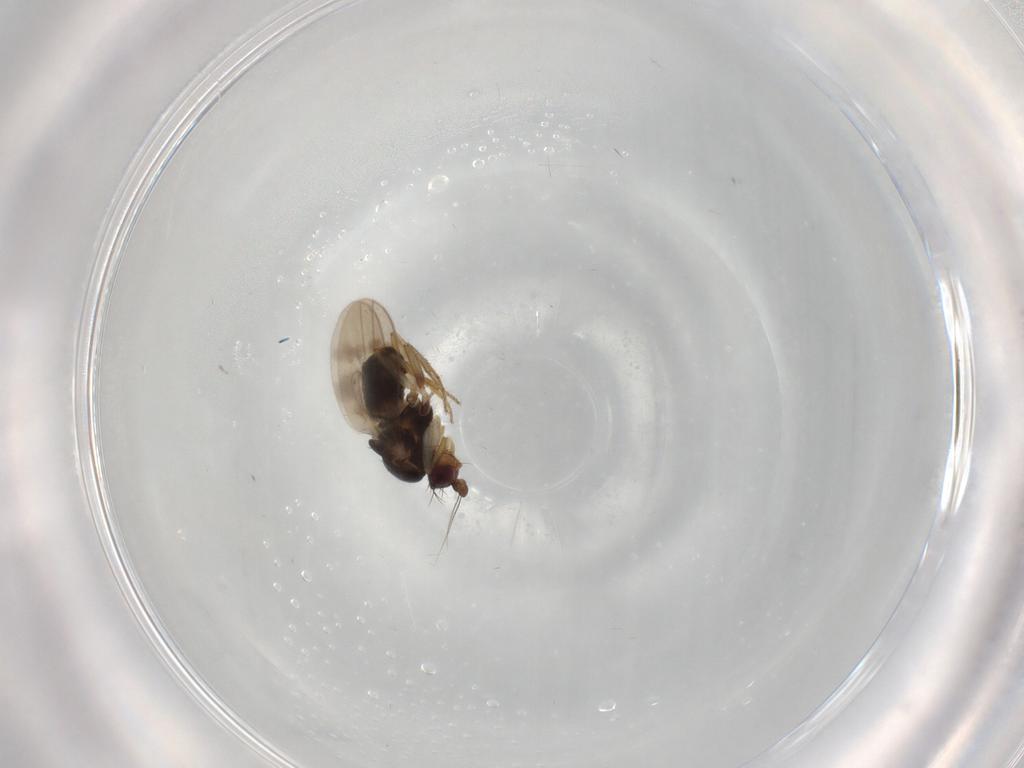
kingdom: Animalia
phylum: Arthropoda
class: Insecta
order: Diptera
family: Sphaeroceridae
